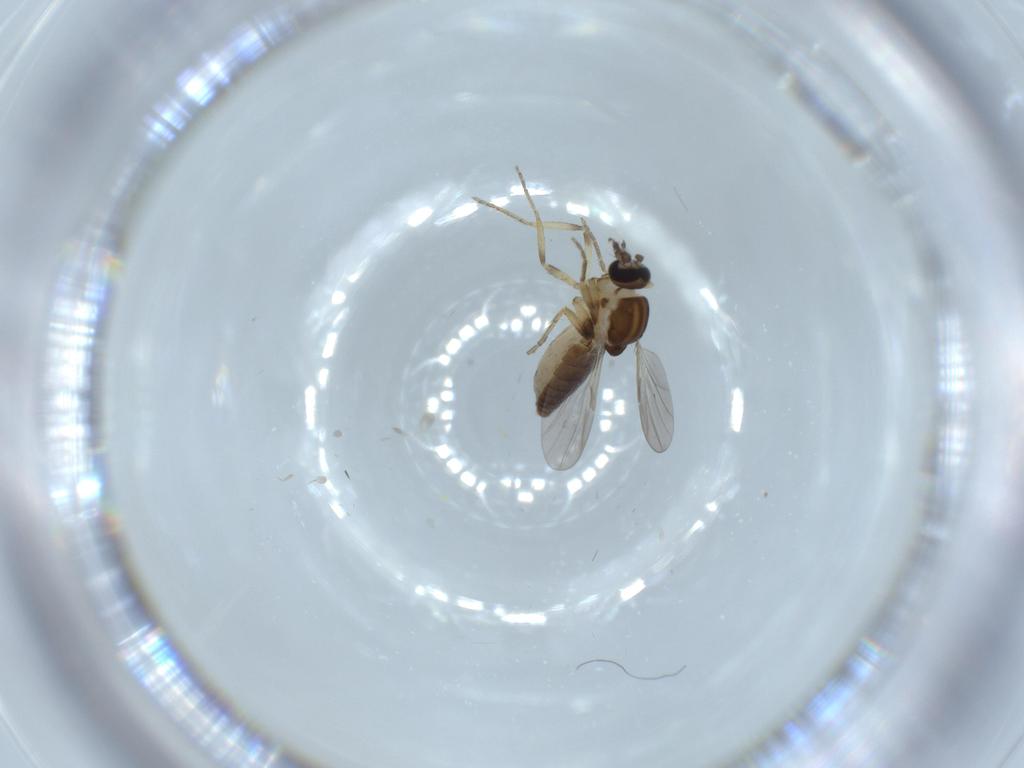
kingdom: Animalia
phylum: Arthropoda
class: Insecta
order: Diptera
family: Ceratopogonidae
